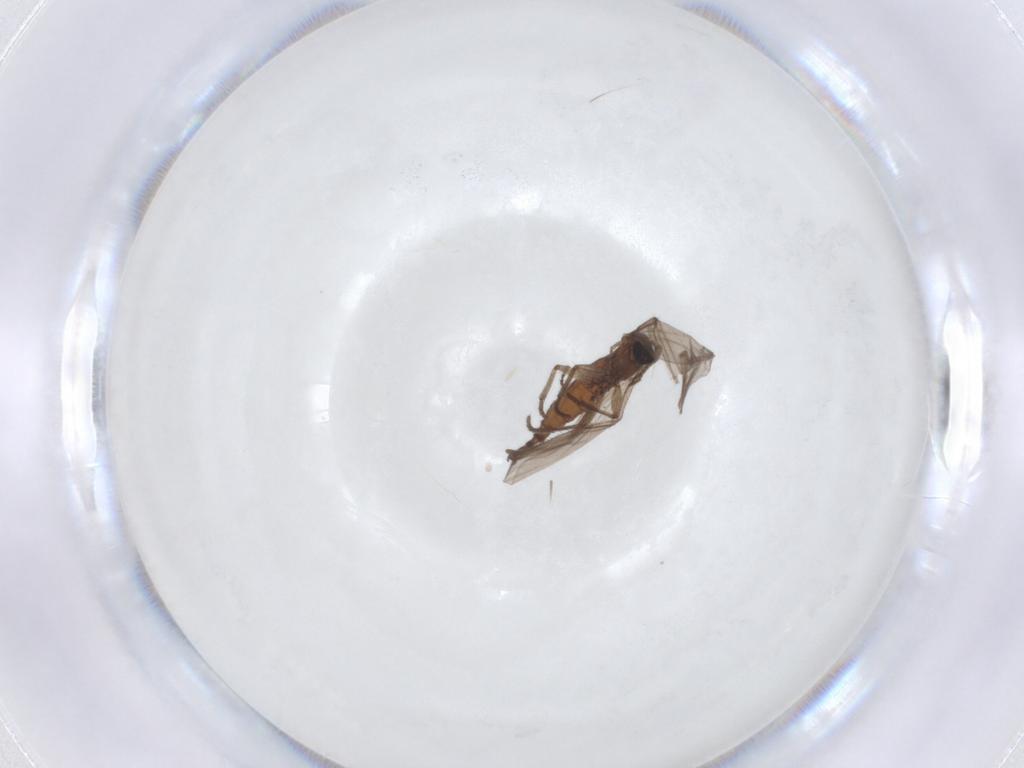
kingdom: Animalia
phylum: Arthropoda
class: Insecta
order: Diptera
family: Sciaridae
